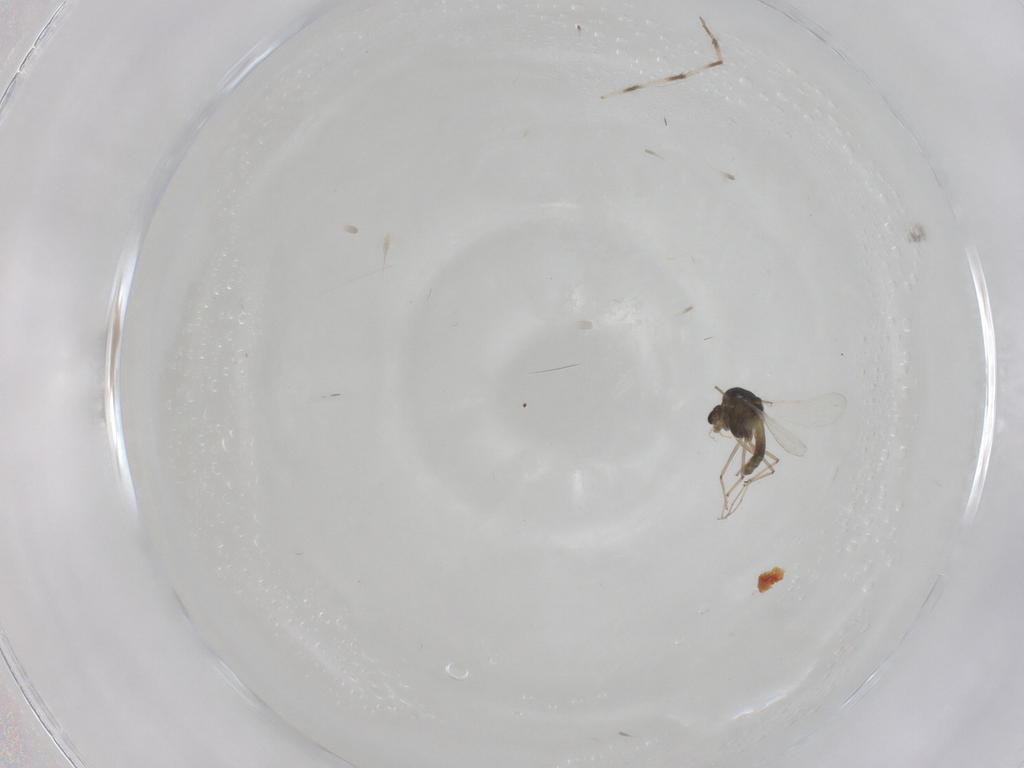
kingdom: Animalia
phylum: Arthropoda
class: Insecta
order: Diptera
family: Chironomidae
